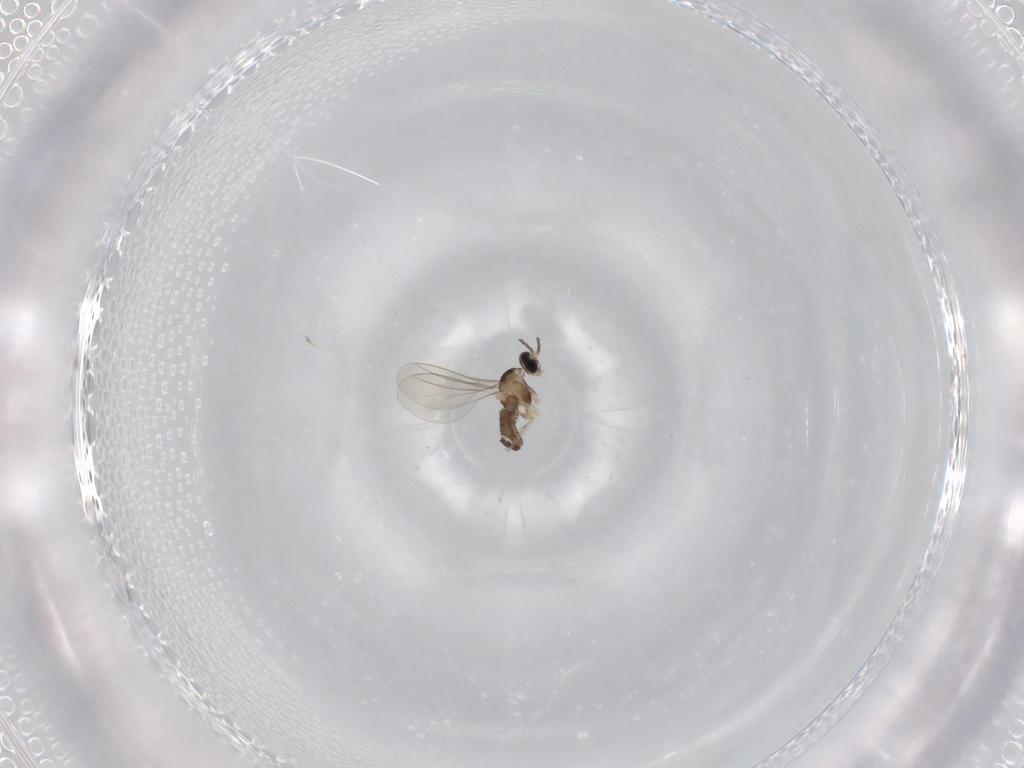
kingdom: Animalia
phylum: Arthropoda
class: Insecta
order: Diptera
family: Cecidomyiidae
